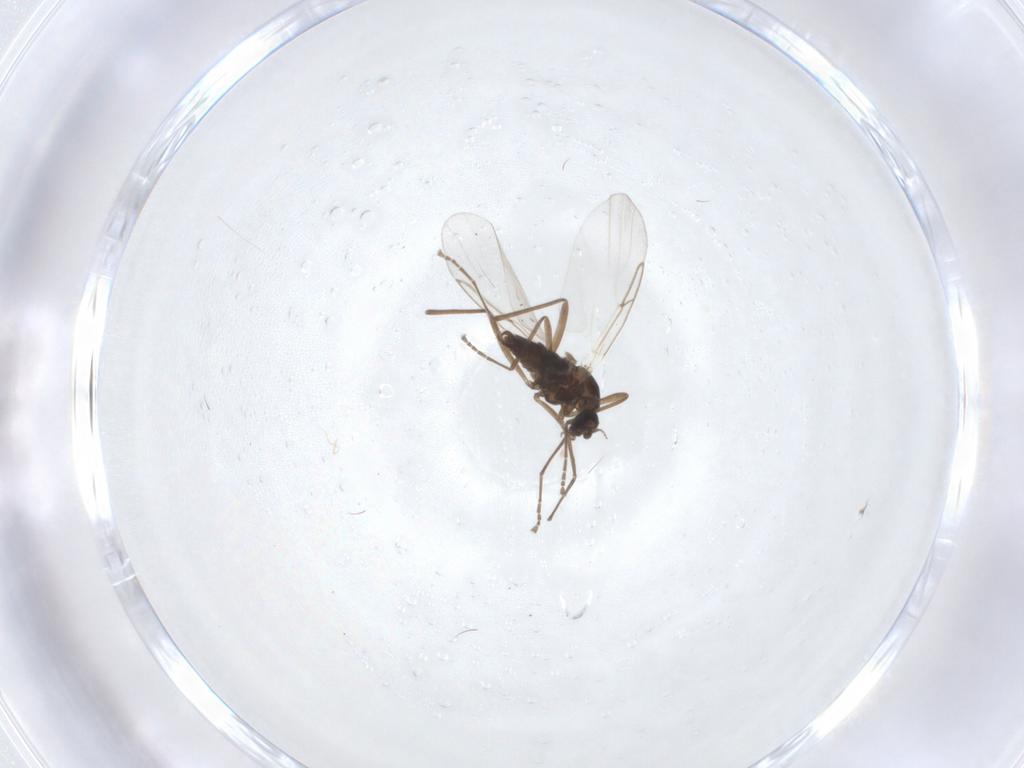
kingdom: Animalia
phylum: Arthropoda
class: Insecta
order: Diptera
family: Cecidomyiidae
